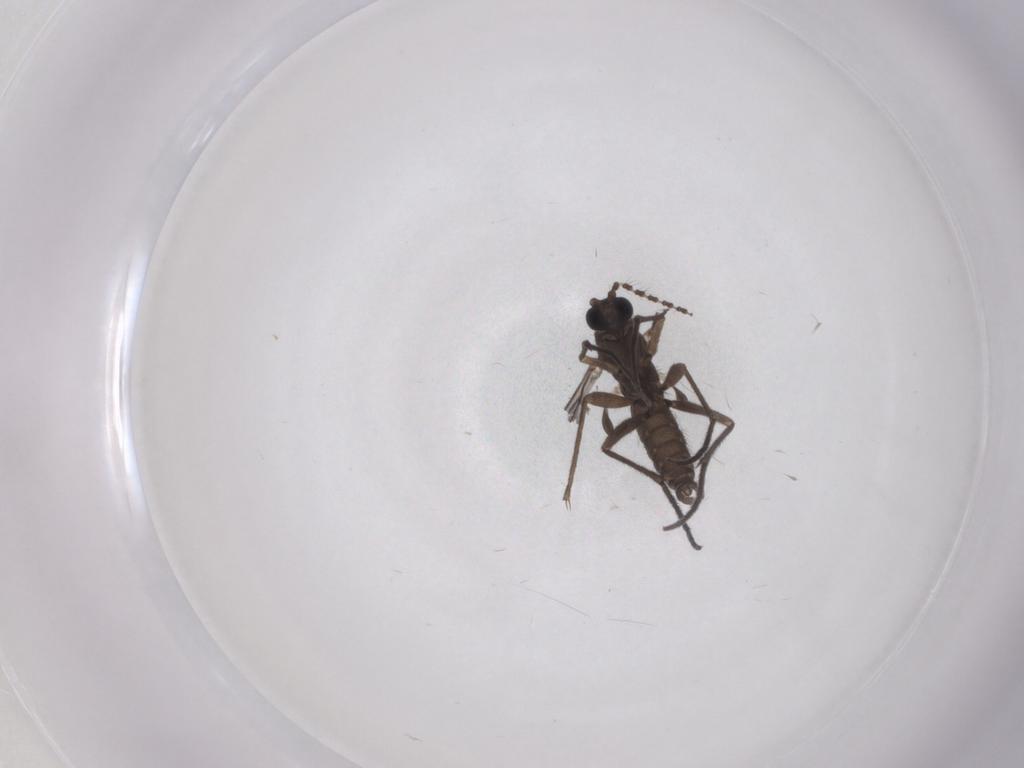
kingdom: Animalia
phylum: Arthropoda
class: Insecta
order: Diptera
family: Sciaridae
